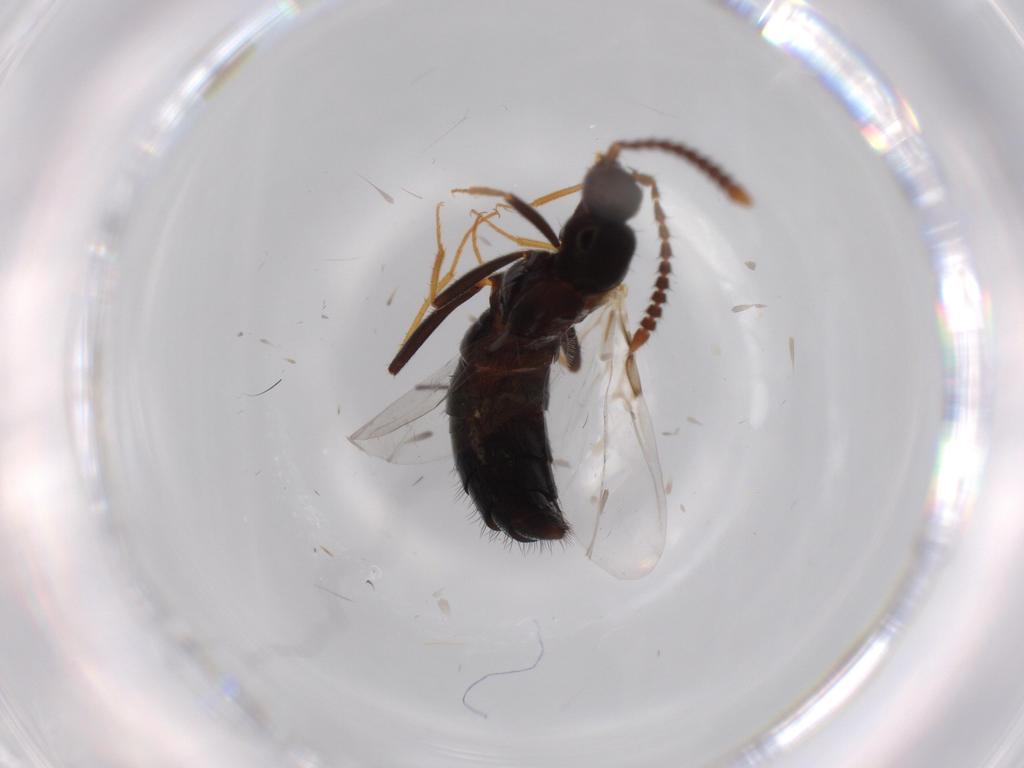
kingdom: Animalia
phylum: Arthropoda
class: Insecta
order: Coleoptera
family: Staphylinidae
